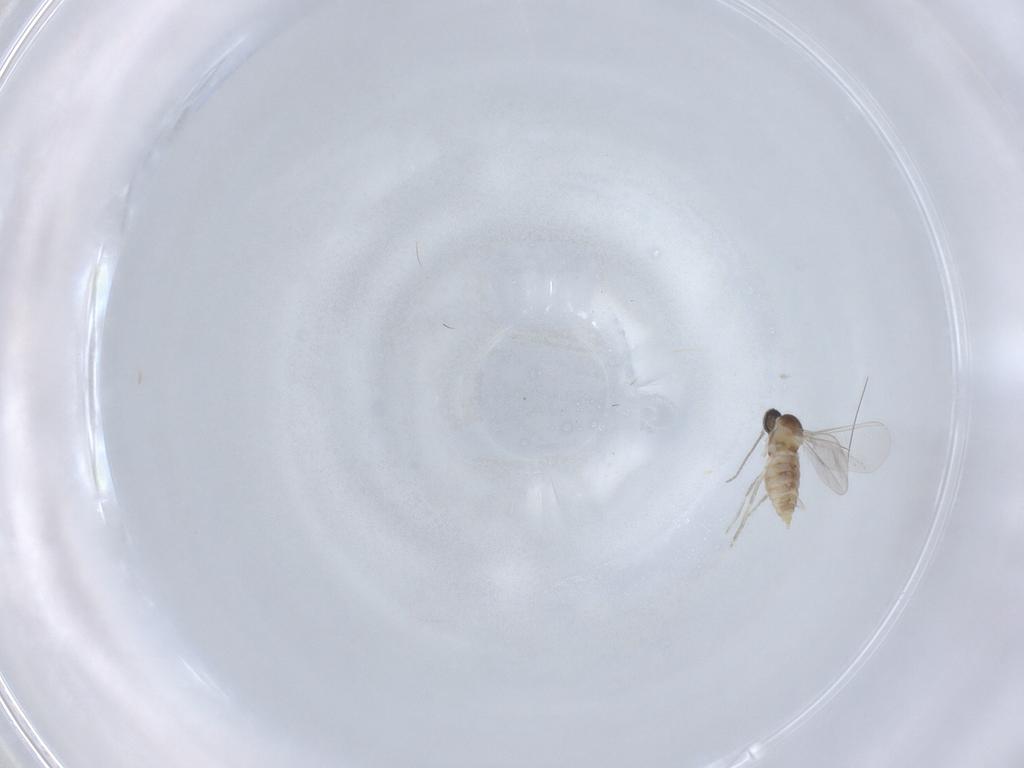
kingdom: Animalia
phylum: Arthropoda
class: Insecta
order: Diptera
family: Cecidomyiidae
